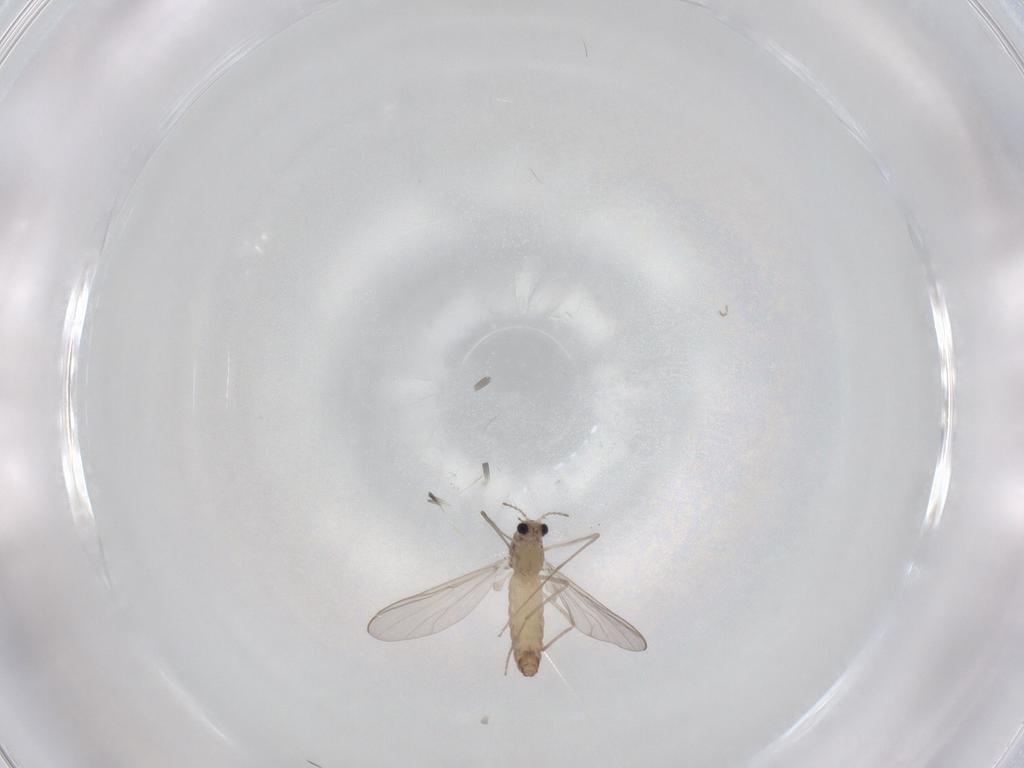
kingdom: Animalia
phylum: Arthropoda
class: Insecta
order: Diptera
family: Chironomidae
